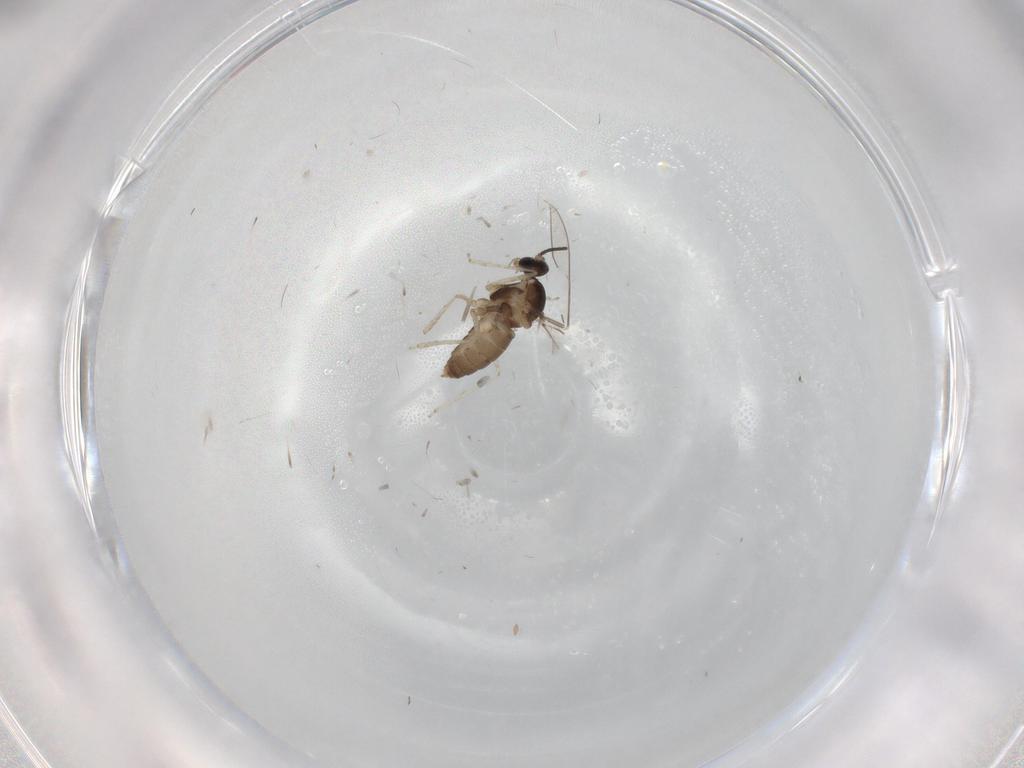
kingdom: Animalia
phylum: Arthropoda
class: Insecta
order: Diptera
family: Cecidomyiidae
